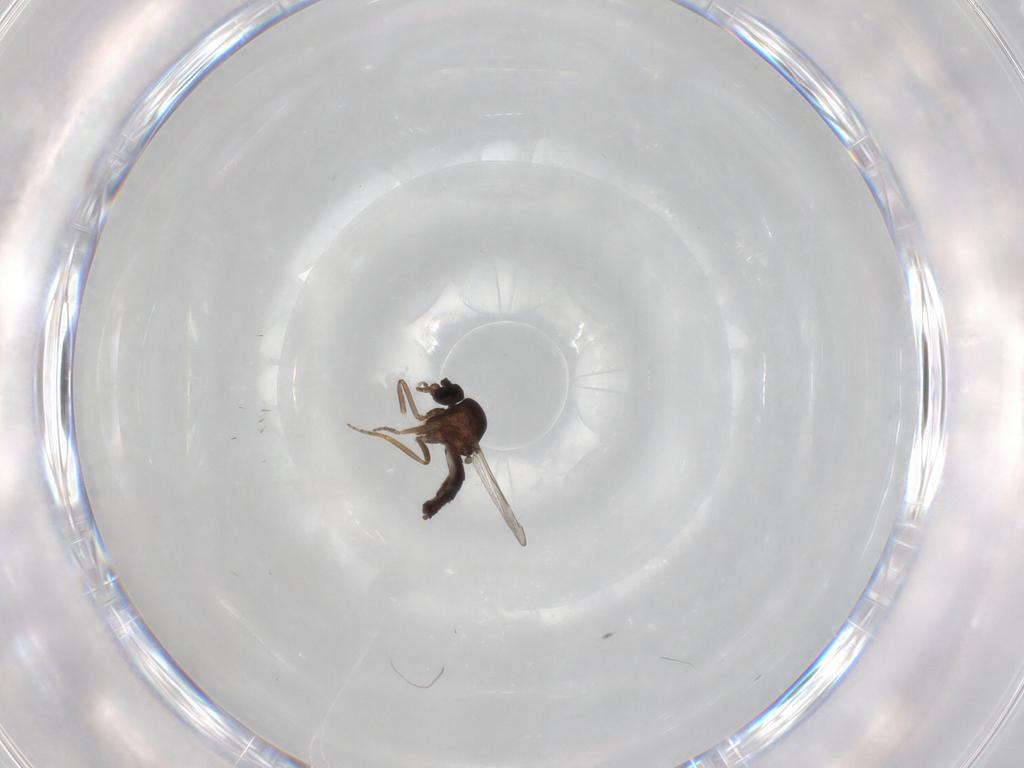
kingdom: Animalia
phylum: Arthropoda
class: Insecta
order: Diptera
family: Ceratopogonidae
